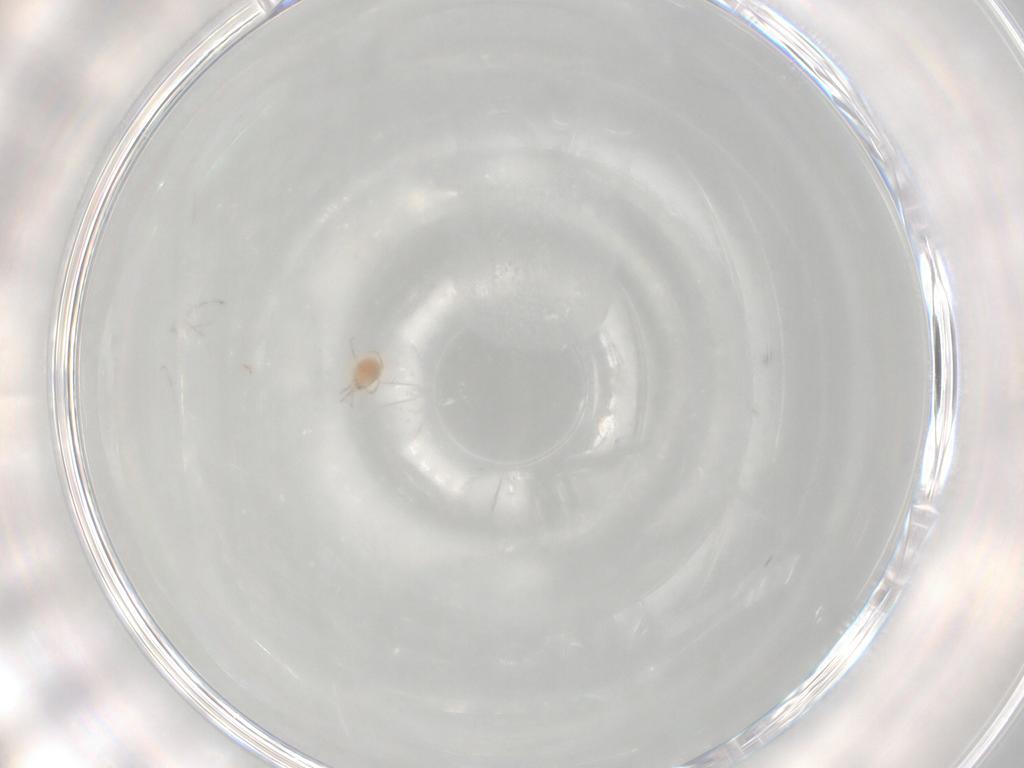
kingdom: Animalia
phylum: Arthropoda
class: Arachnida
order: Trombidiformes
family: Limnesiidae
